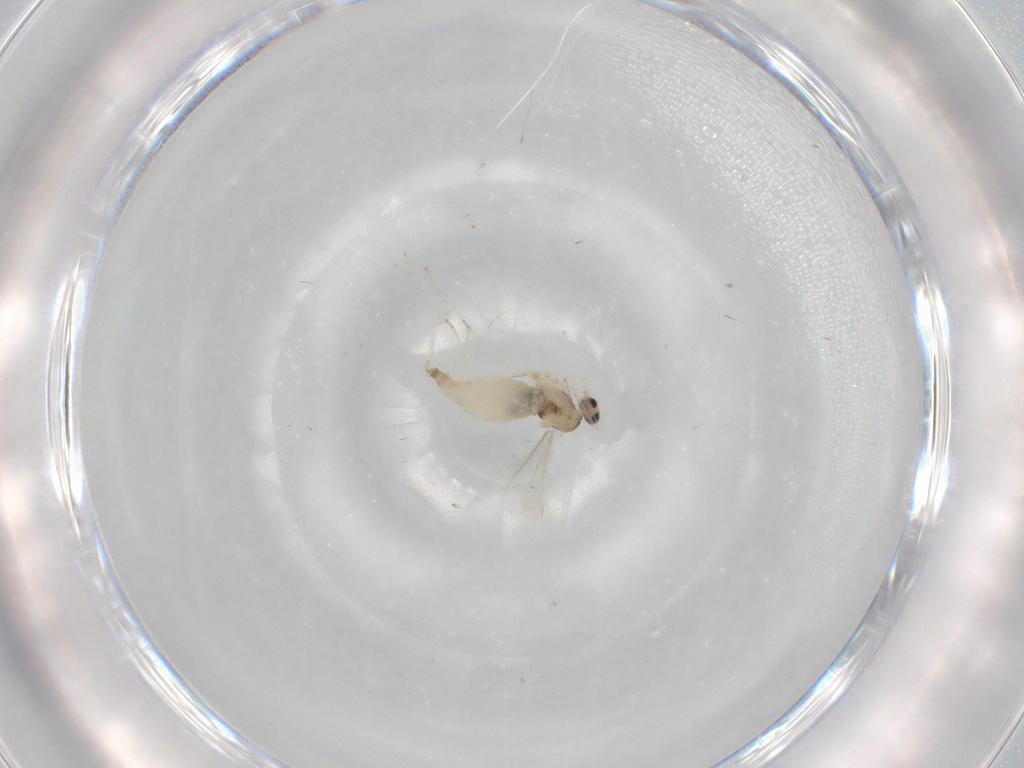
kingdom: Animalia
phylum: Arthropoda
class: Insecta
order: Diptera
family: Cecidomyiidae
